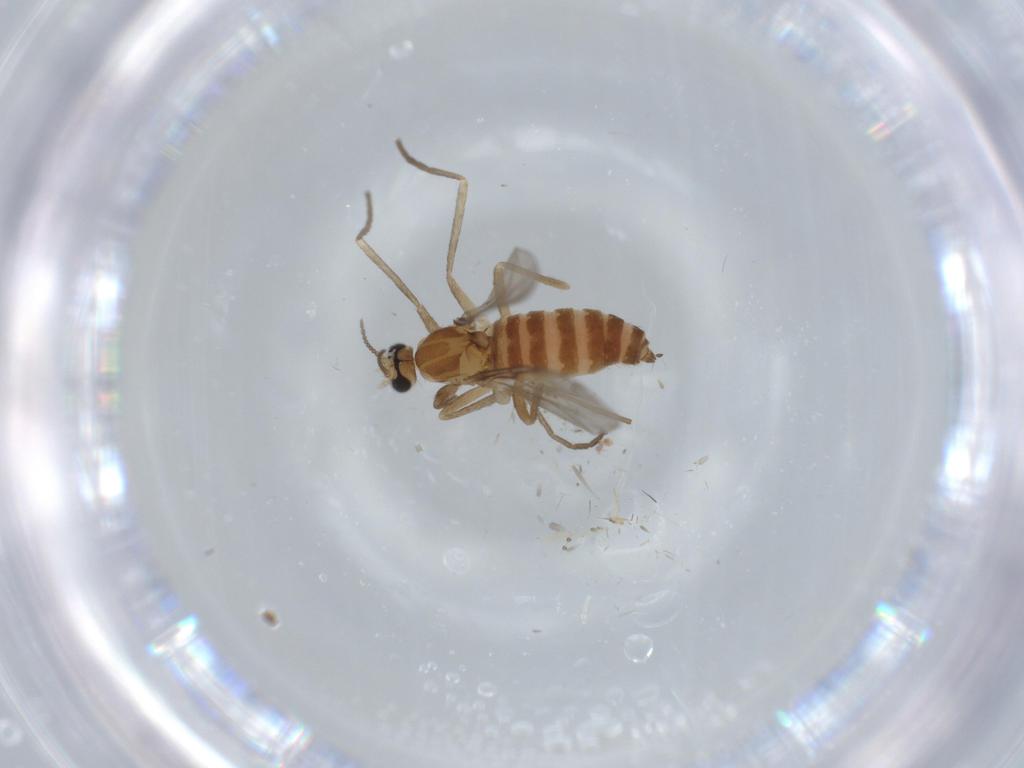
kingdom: Animalia
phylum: Arthropoda
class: Insecta
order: Diptera
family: Cecidomyiidae
